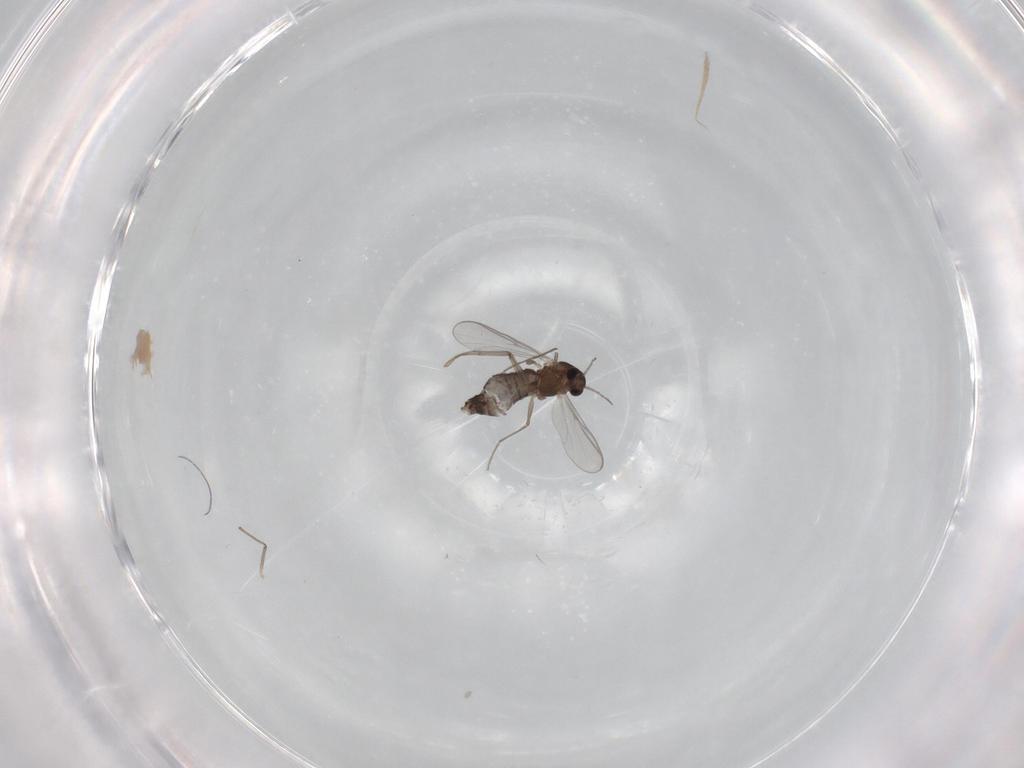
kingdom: Animalia
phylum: Arthropoda
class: Insecta
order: Diptera
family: Chironomidae
